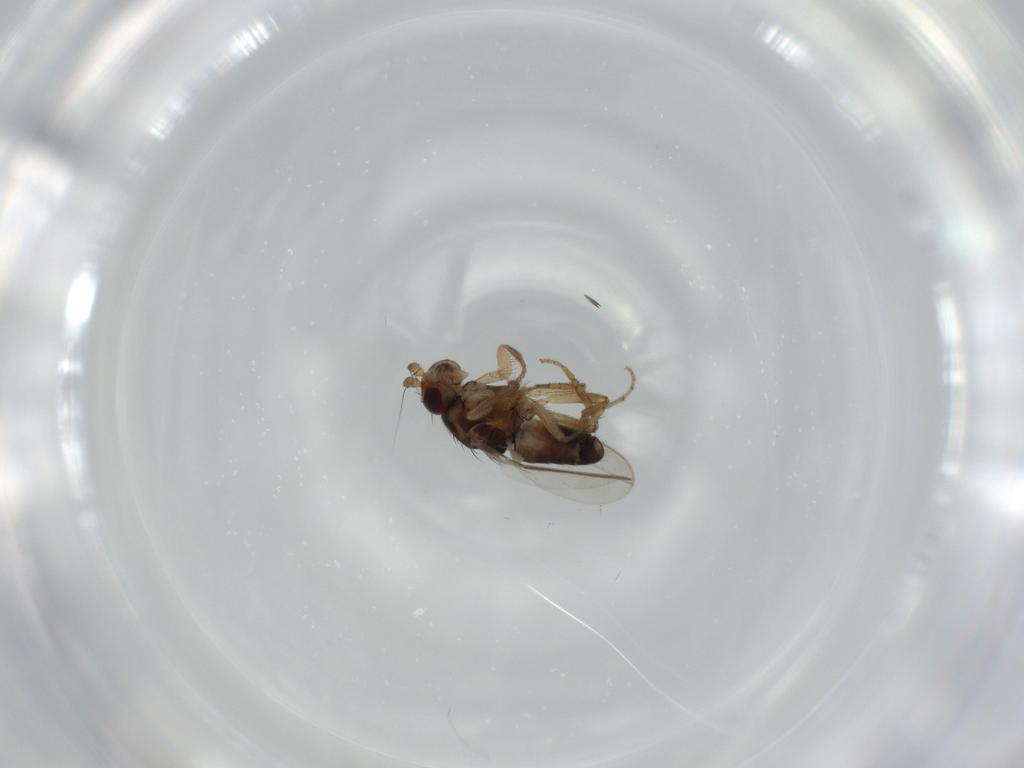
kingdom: Animalia
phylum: Arthropoda
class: Insecta
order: Diptera
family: Sphaeroceridae
